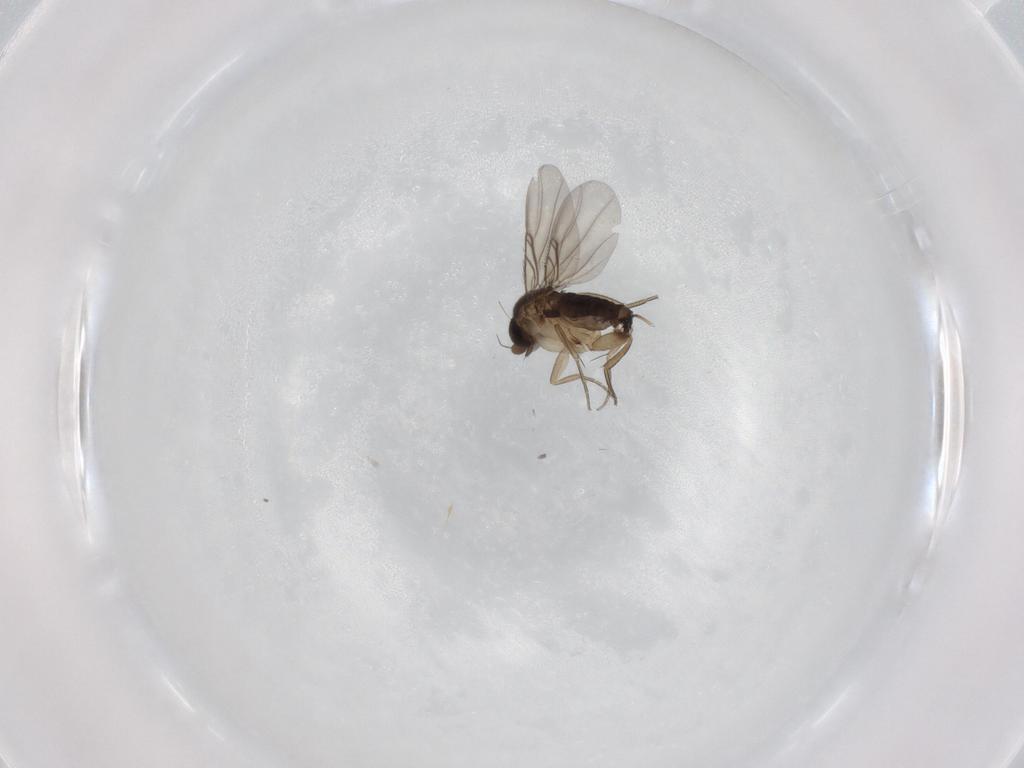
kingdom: Animalia
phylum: Arthropoda
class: Insecta
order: Diptera
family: Phoridae
